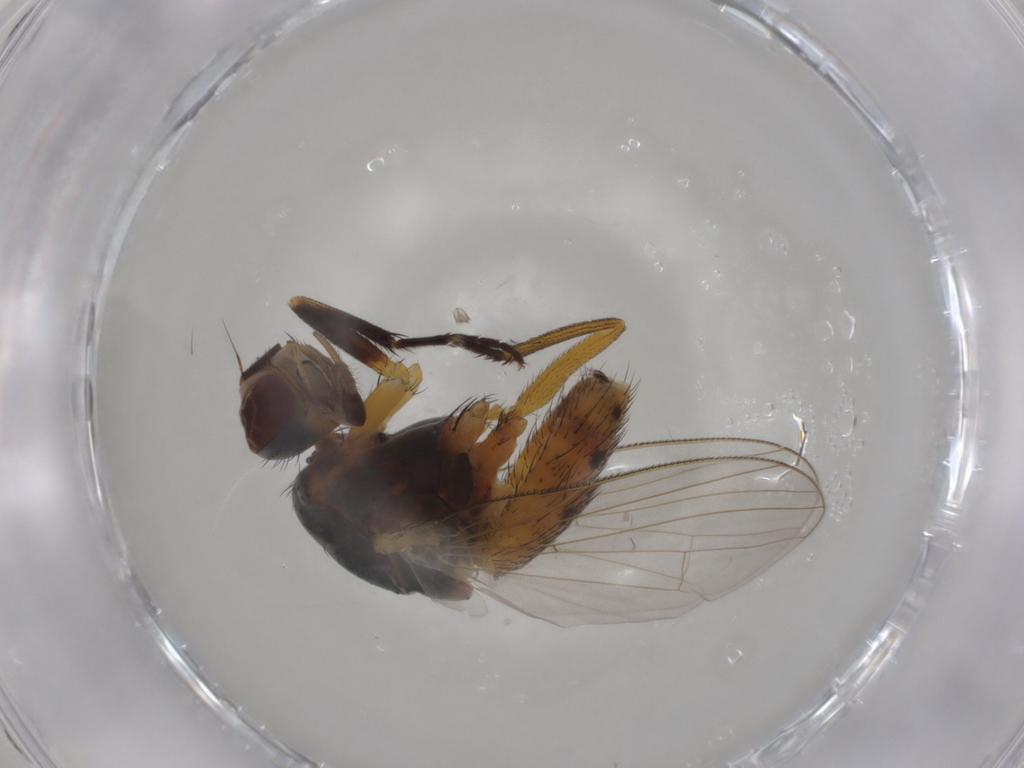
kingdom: Animalia
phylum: Arthropoda
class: Insecta
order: Diptera
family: Muscidae
